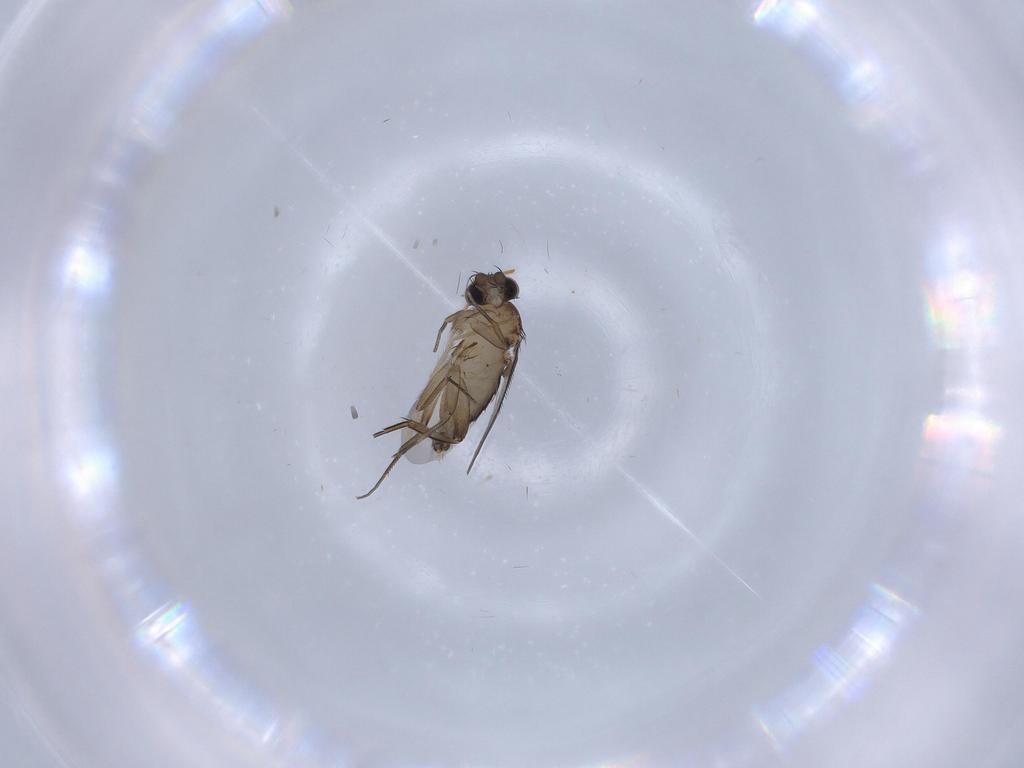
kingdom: Animalia
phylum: Arthropoda
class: Insecta
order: Diptera
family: Phoridae
